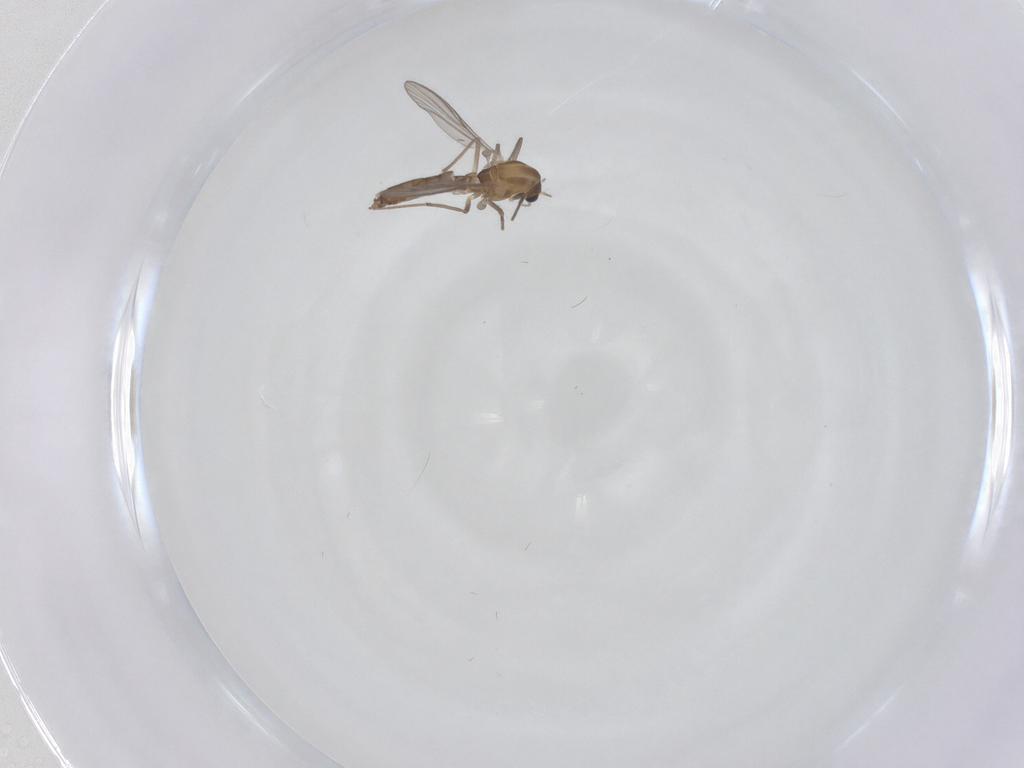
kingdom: Animalia
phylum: Arthropoda
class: Insecta
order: Diptera
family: Chironomidae
